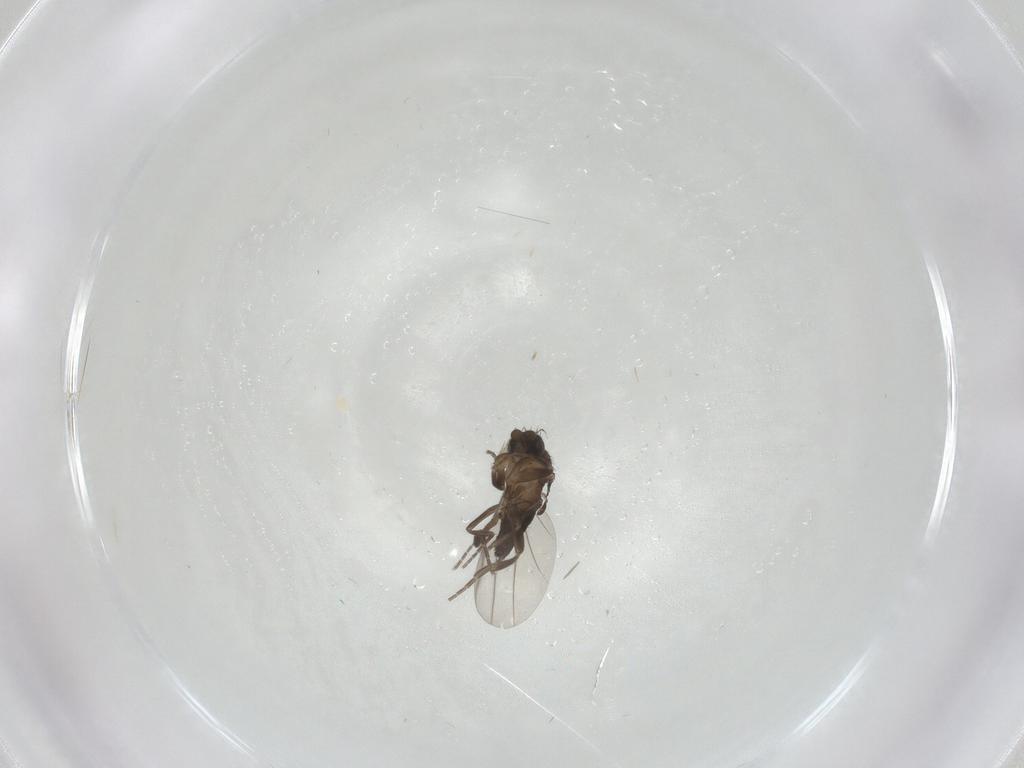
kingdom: Animalia
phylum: Arthropoda
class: Insecta
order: Diptera
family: Phoridae
